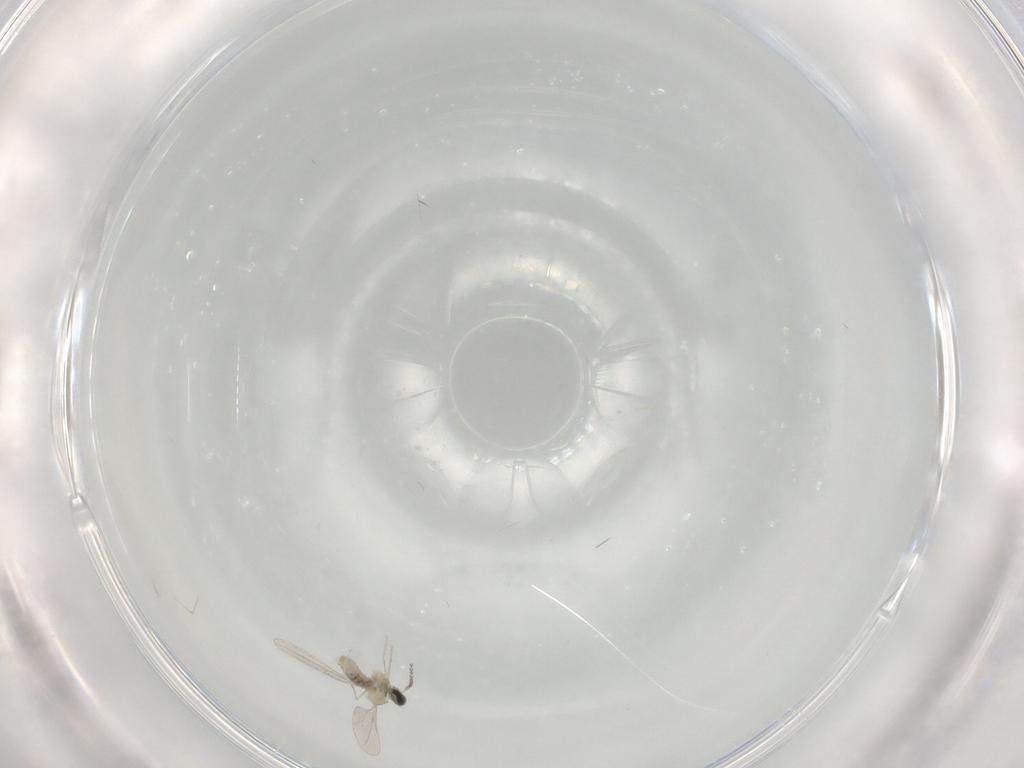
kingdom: Animalia
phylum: Arthropoda
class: Insecta
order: Diptera
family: Cecidomyiidae
